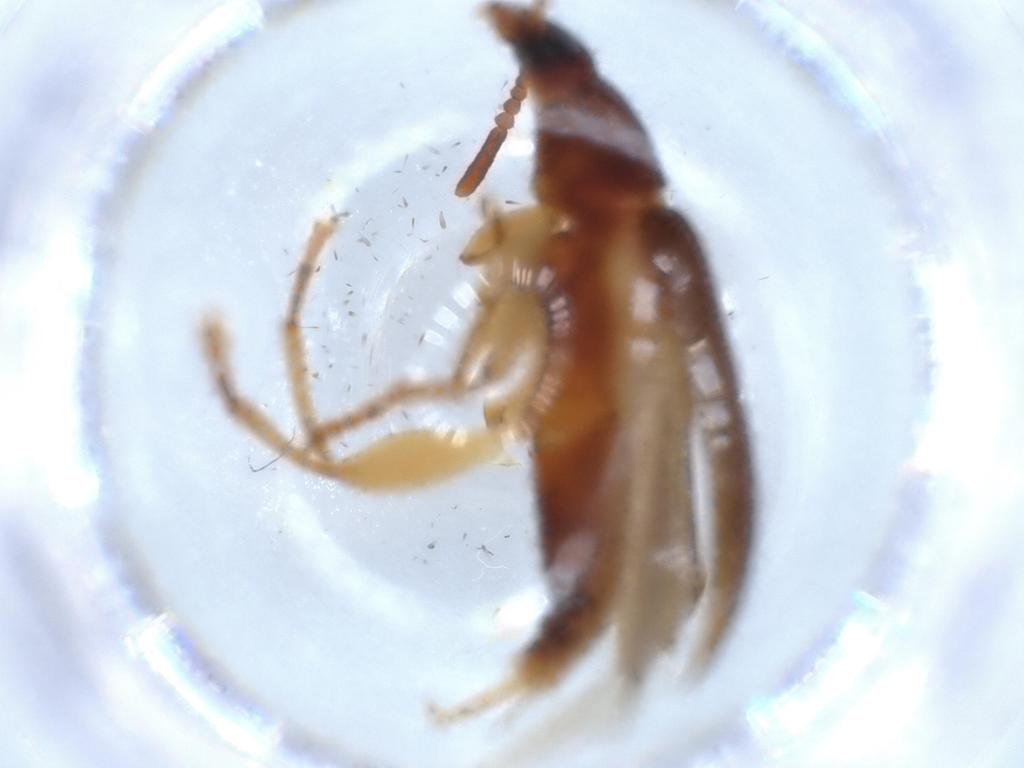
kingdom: Animalia
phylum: Arthropoda
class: Insecta
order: Coleoptera
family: Tenebrionidae
